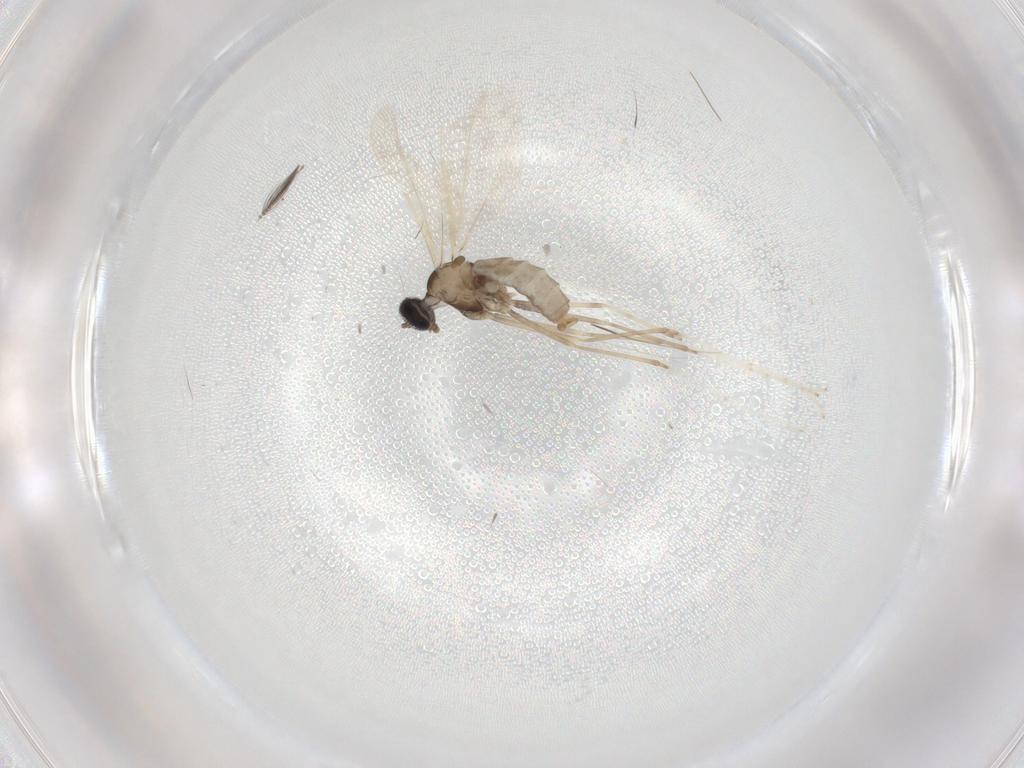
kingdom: Animalia
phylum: Arthropoda
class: Insecta
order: Diptera
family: Cecidomyiidae
